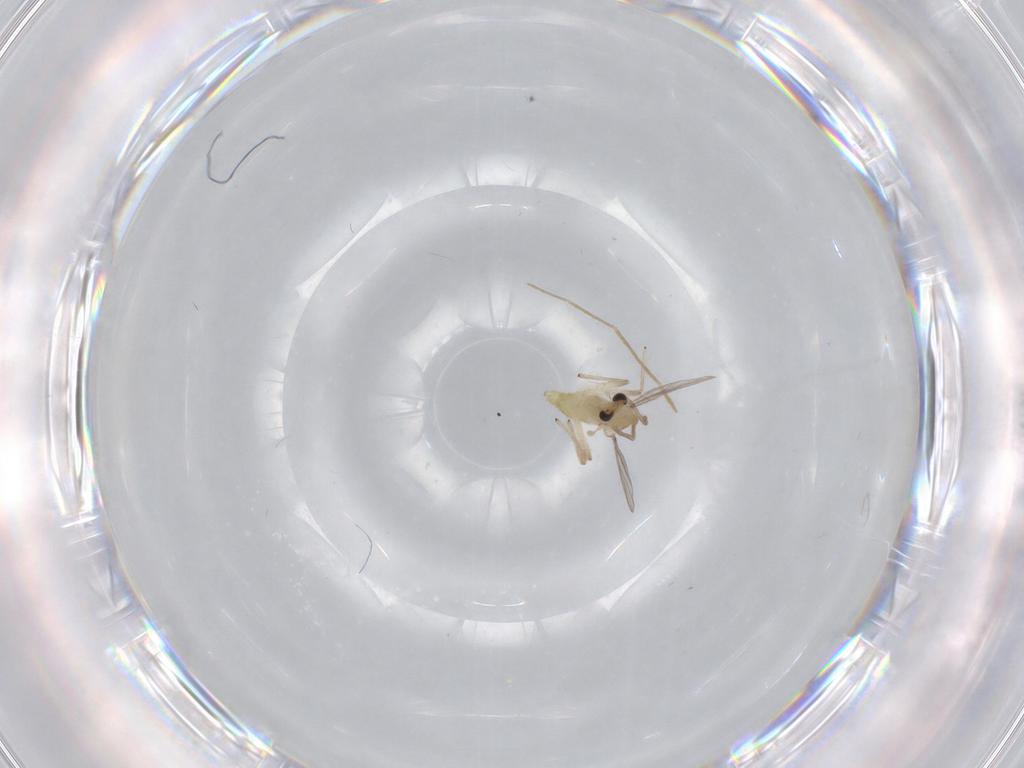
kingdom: Animalia
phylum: Arthropoda
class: Insecta
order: Diptera
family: Chironomidae
